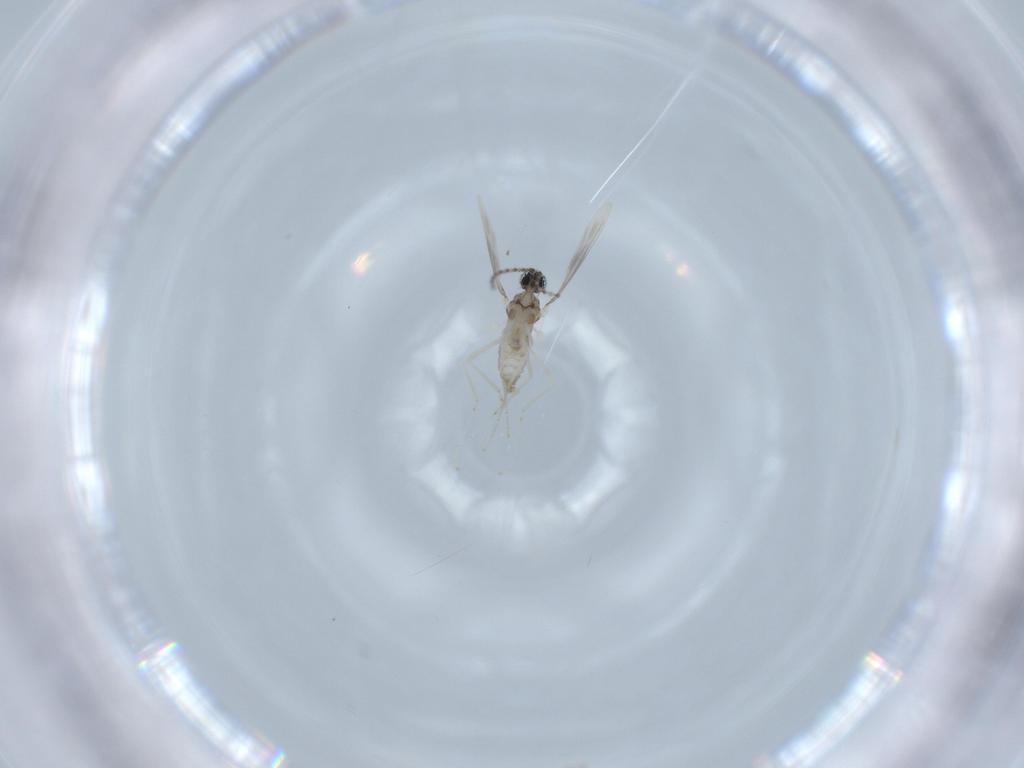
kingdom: Animalia
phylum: Arthropoda
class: Insecta
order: Diptera
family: Cecidomyiidae
